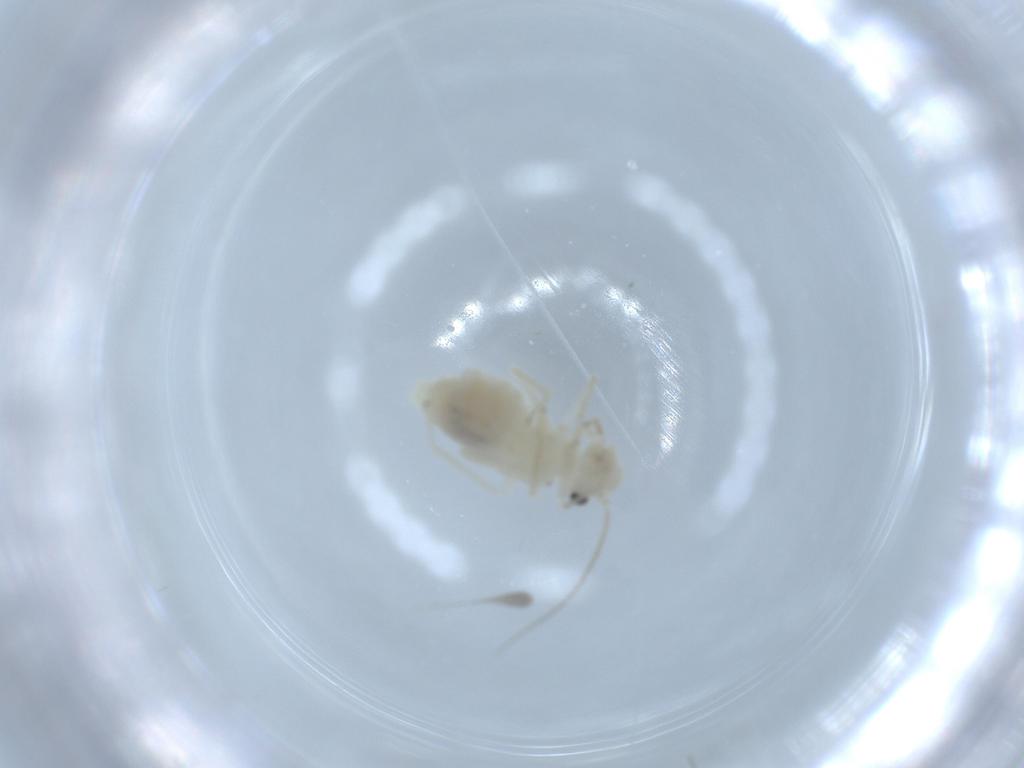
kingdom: Animalia
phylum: Arthropoda
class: Insecta
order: Psocodea
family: Caeciliusidae
